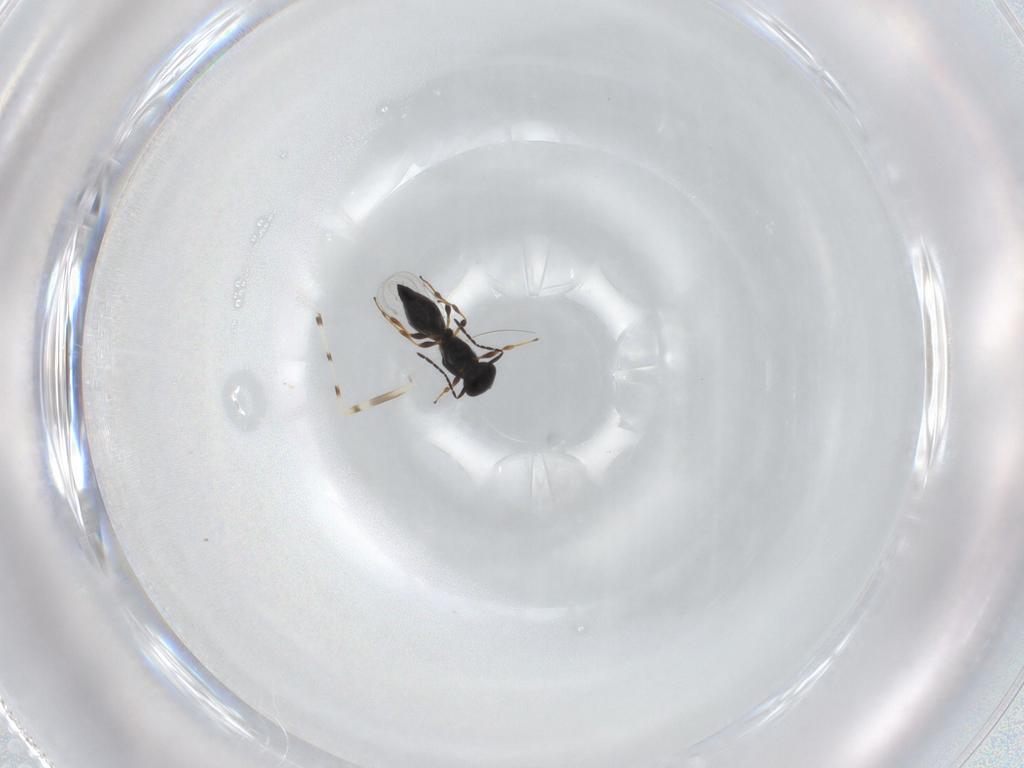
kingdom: Animalia
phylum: Arthropoda
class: Insecta
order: Hymenoptera
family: Platygastridae
